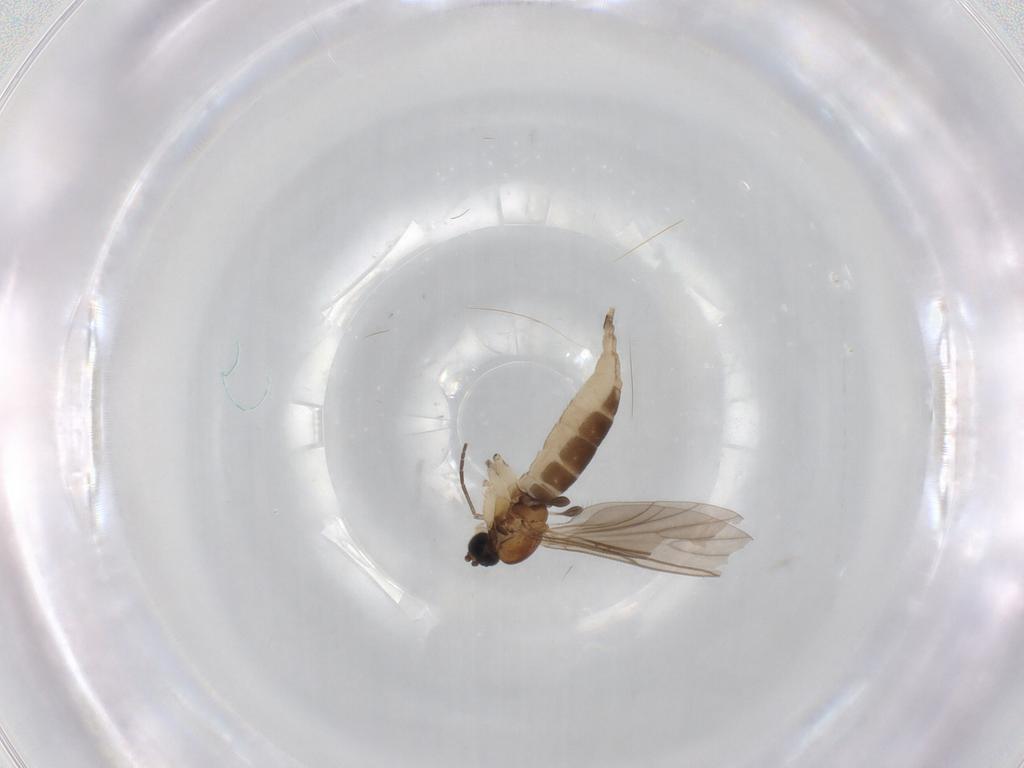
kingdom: Animalia
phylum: Arthropoda
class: Insecta
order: Diptera
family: Sciaridae
